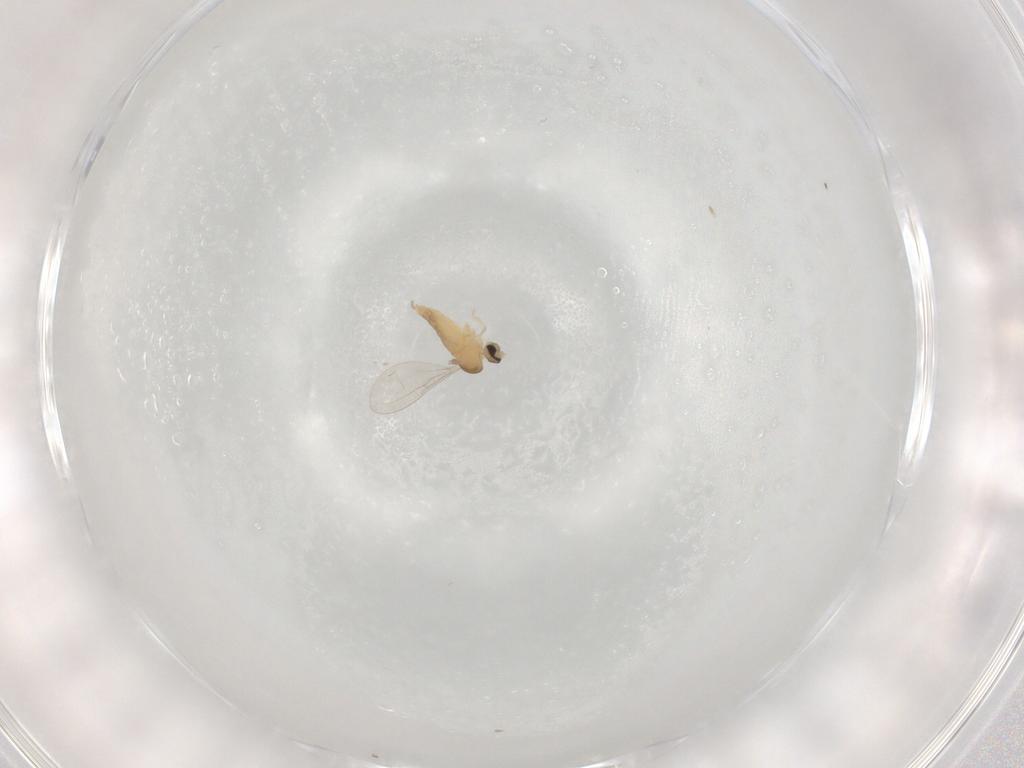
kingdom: Animalia
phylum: Arthropoda
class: Insecta
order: Diptera
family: Cecidomyiidae
